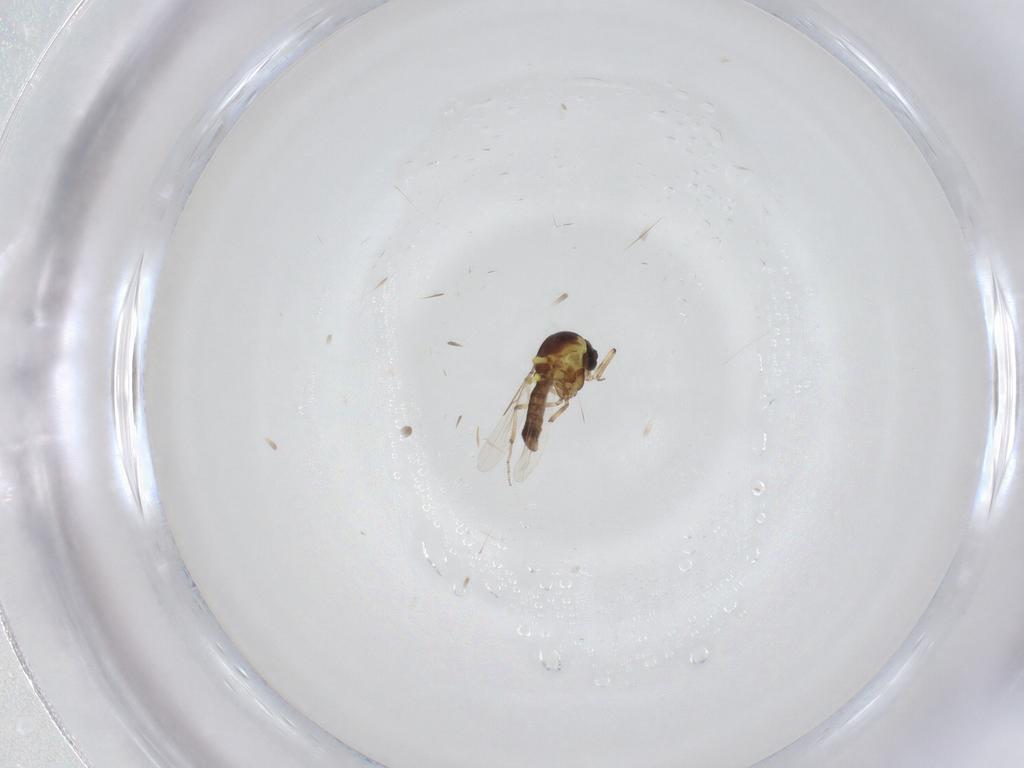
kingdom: Animalia
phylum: Arthropoda
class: Insecta
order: Diptera
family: Ceratopogonidae
